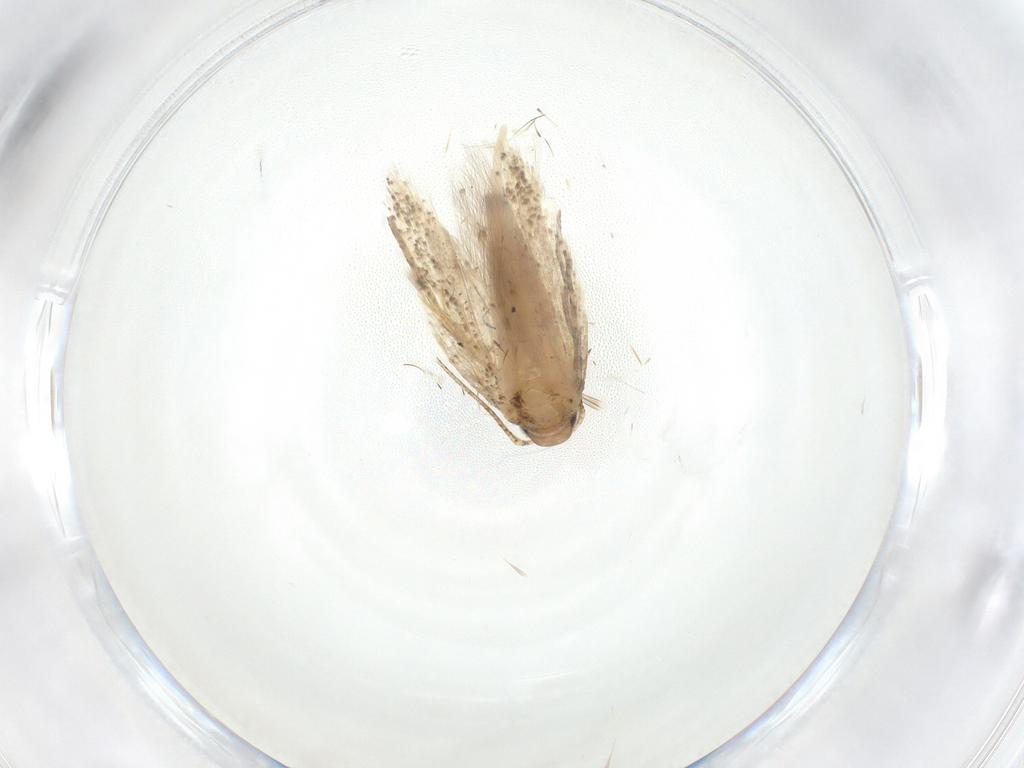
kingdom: Animalia
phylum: Arthropoda
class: Insecta
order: Lepidoptera
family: Gelechiidae
